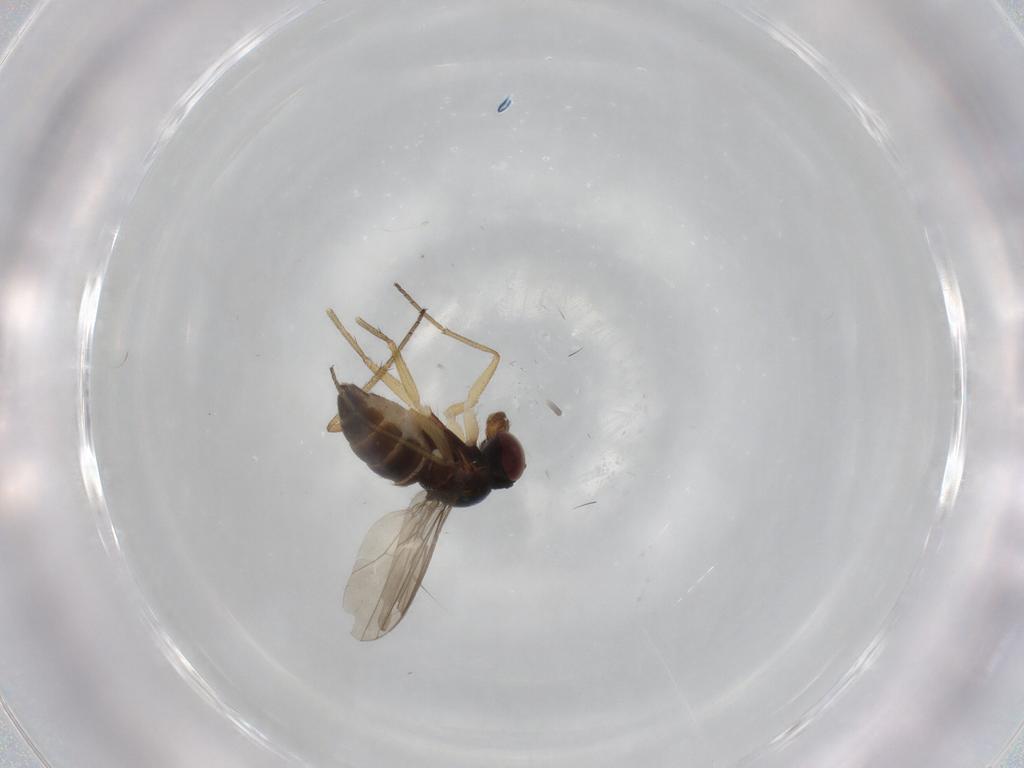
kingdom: Animalia
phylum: Arthropoda
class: Insecta
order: Diptera
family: Dolichopodidae
